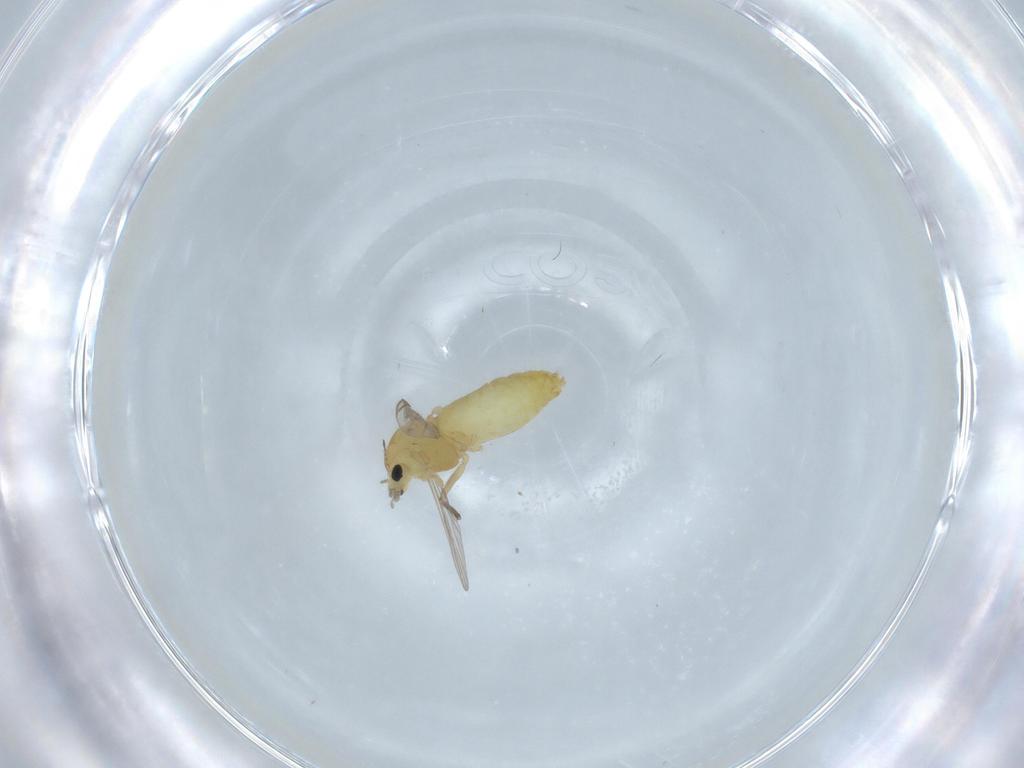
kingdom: Animalia
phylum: Arthropoda
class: Insecta
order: Diptera
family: Chironomidae
